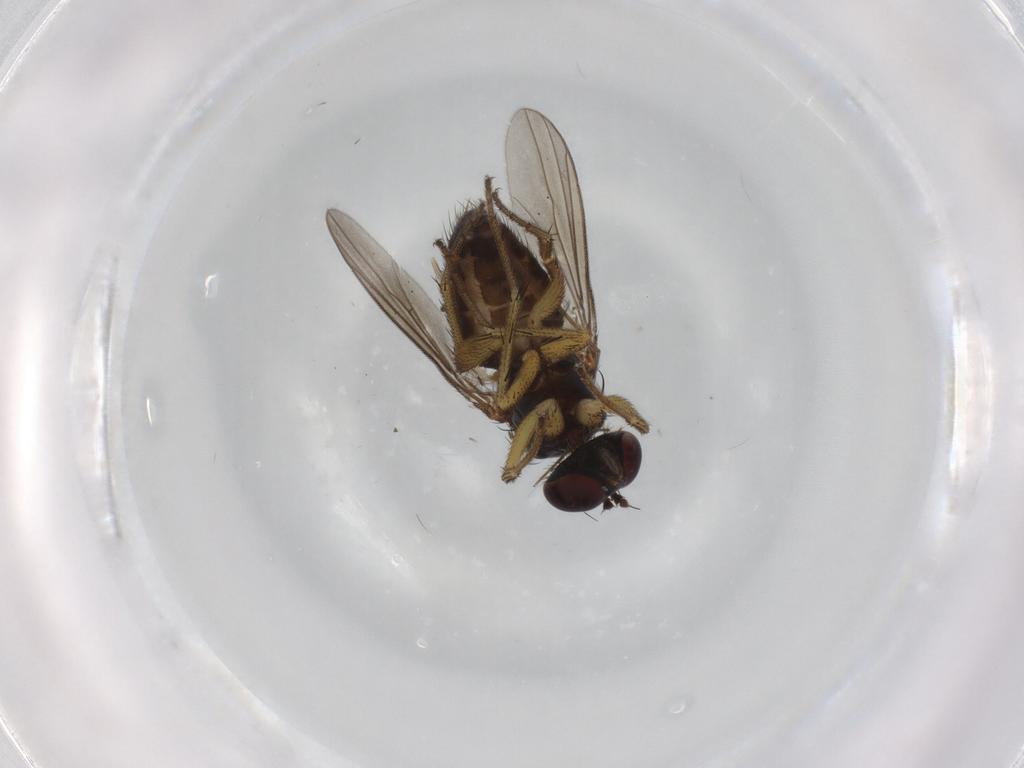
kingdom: Animalia
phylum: Arthropoda
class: Insecta
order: Diptera
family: Dolichopodidae
